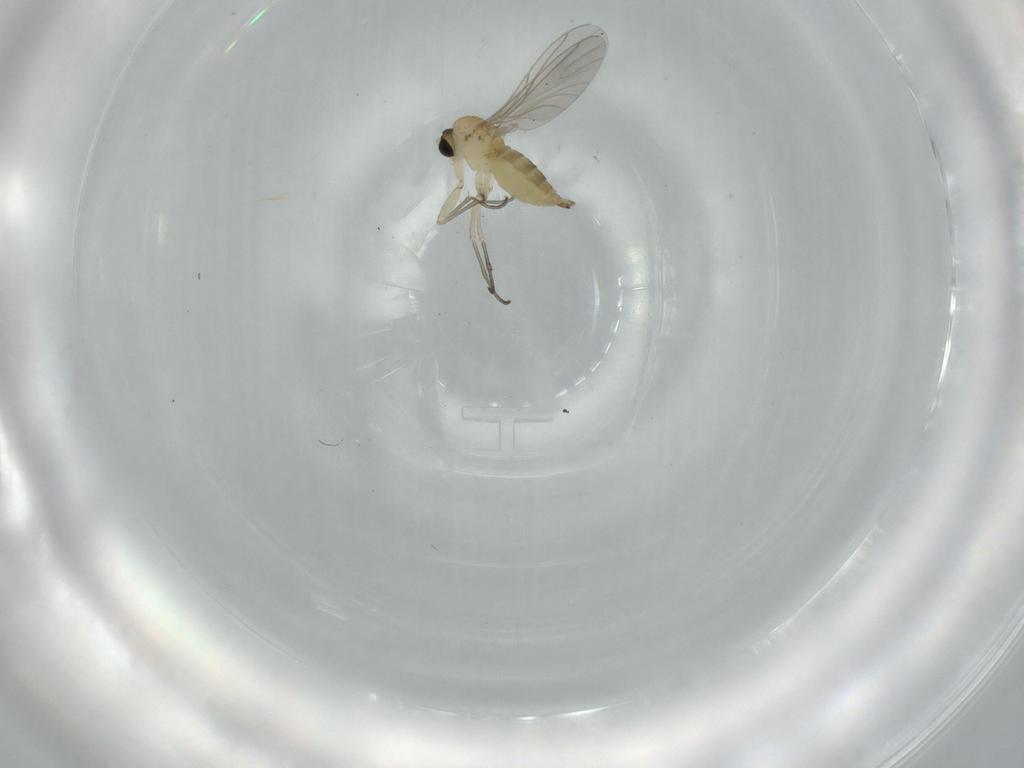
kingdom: Animalia
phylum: Arthropoda
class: Insecta
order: Diptera
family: Sciaridae
